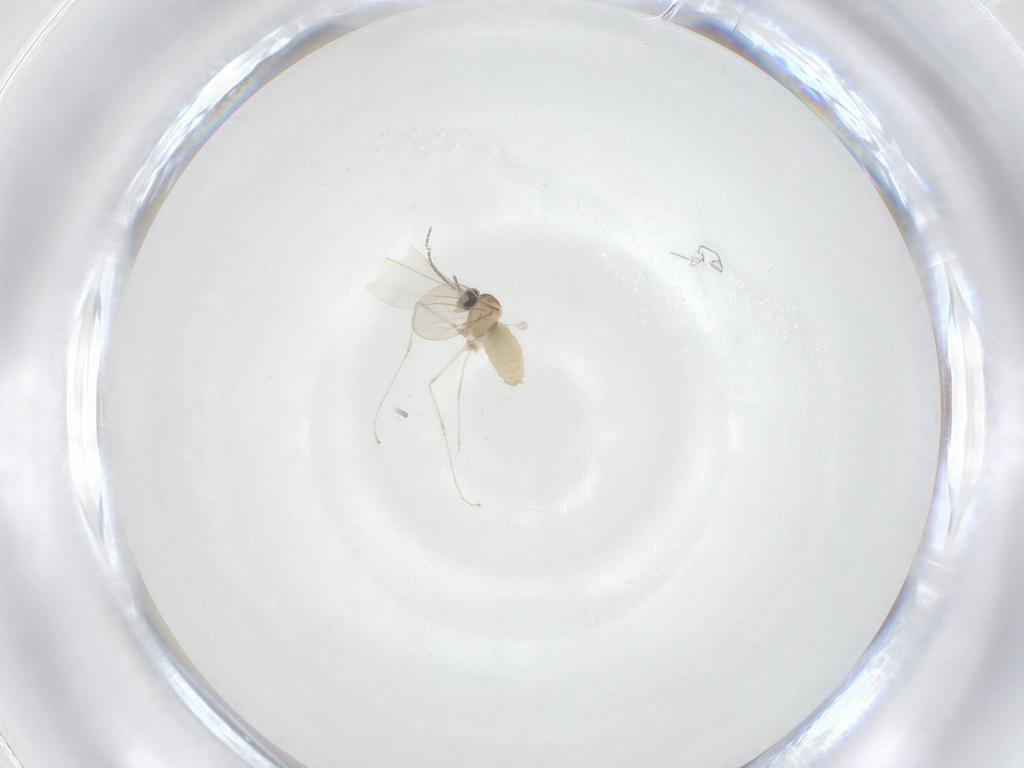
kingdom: Animalia
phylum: Arthropoda
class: Insecta
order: Diptera
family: Cecidomyiidae
